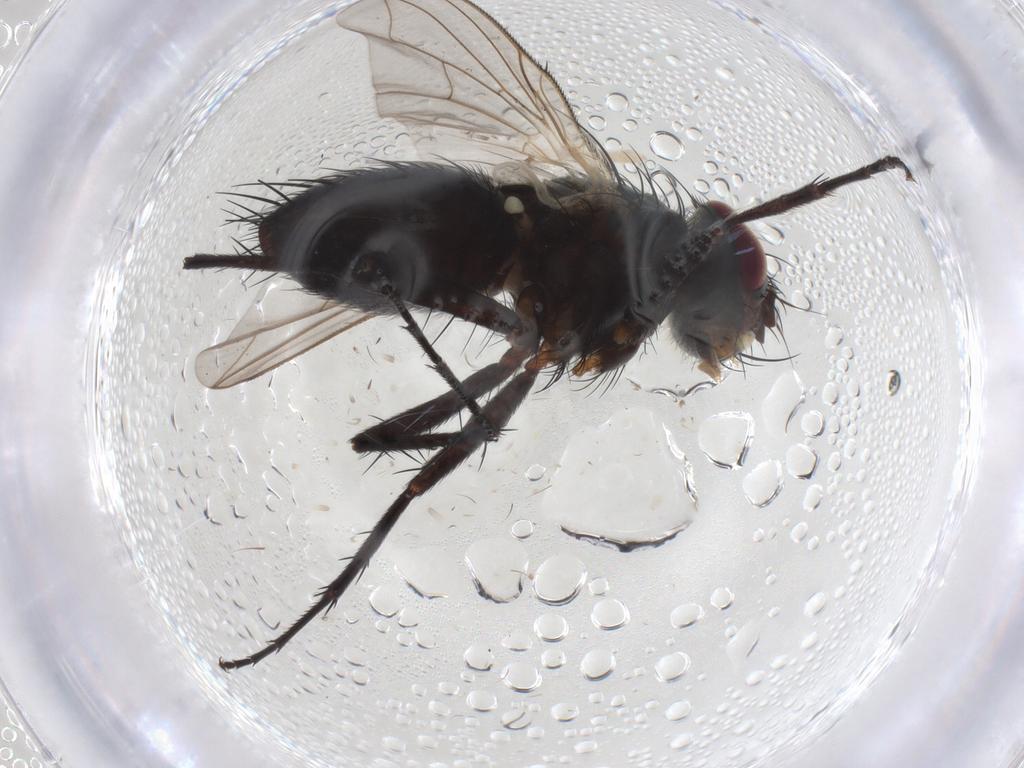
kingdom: Animalia
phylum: Arthropoda
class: Insecta
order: Diptera
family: Tachinidae
